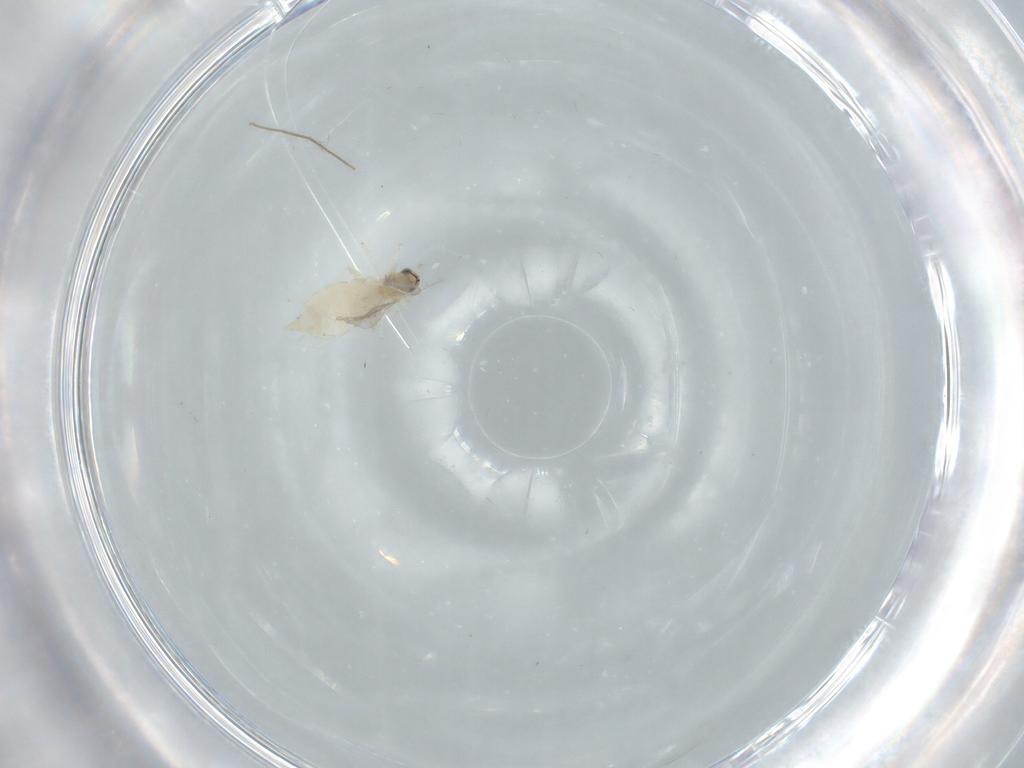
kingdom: Animalia
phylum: Arthropoda
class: Insecta
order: Diptera
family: Cecidomyiidae
